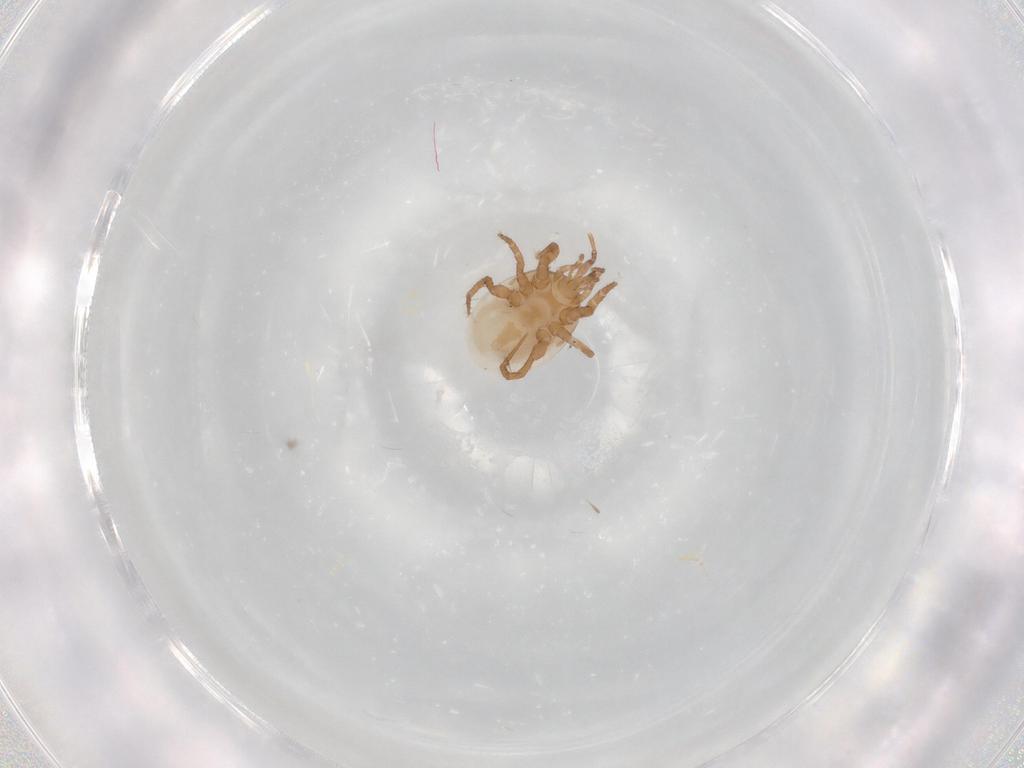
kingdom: Animalia
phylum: Arthropoda
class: Arachnida
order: Mesostigmata
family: Macrochelidae
